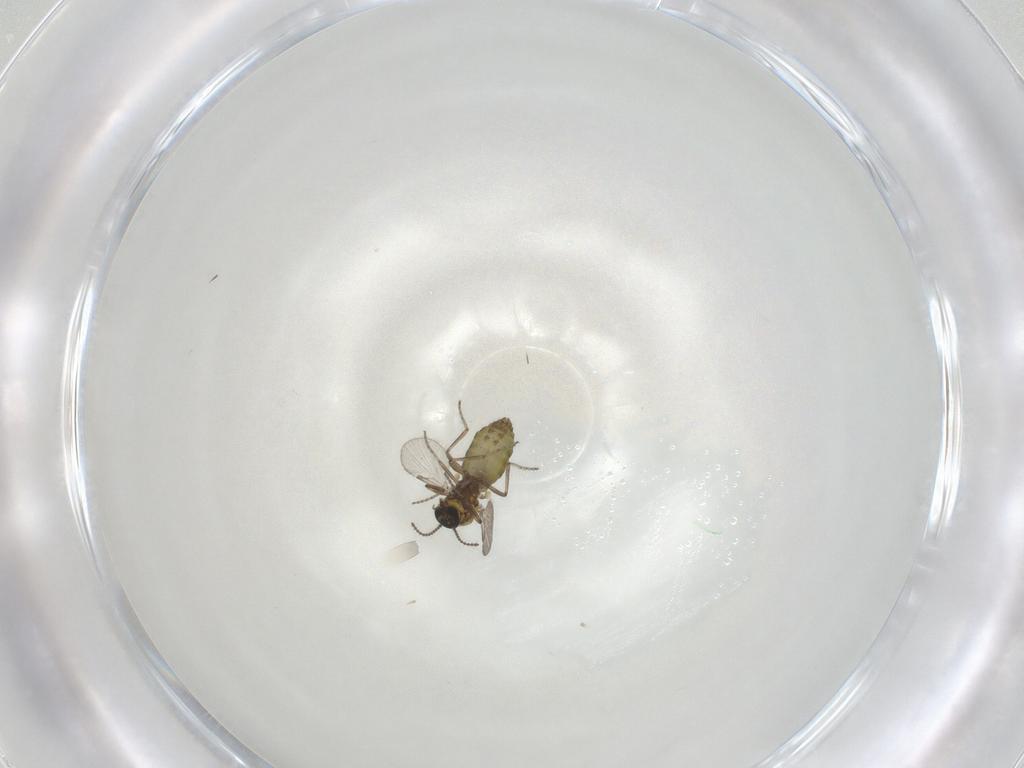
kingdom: Animalia
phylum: Arthropoda
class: Insecta
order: Diptera
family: Ceratopogonidae
